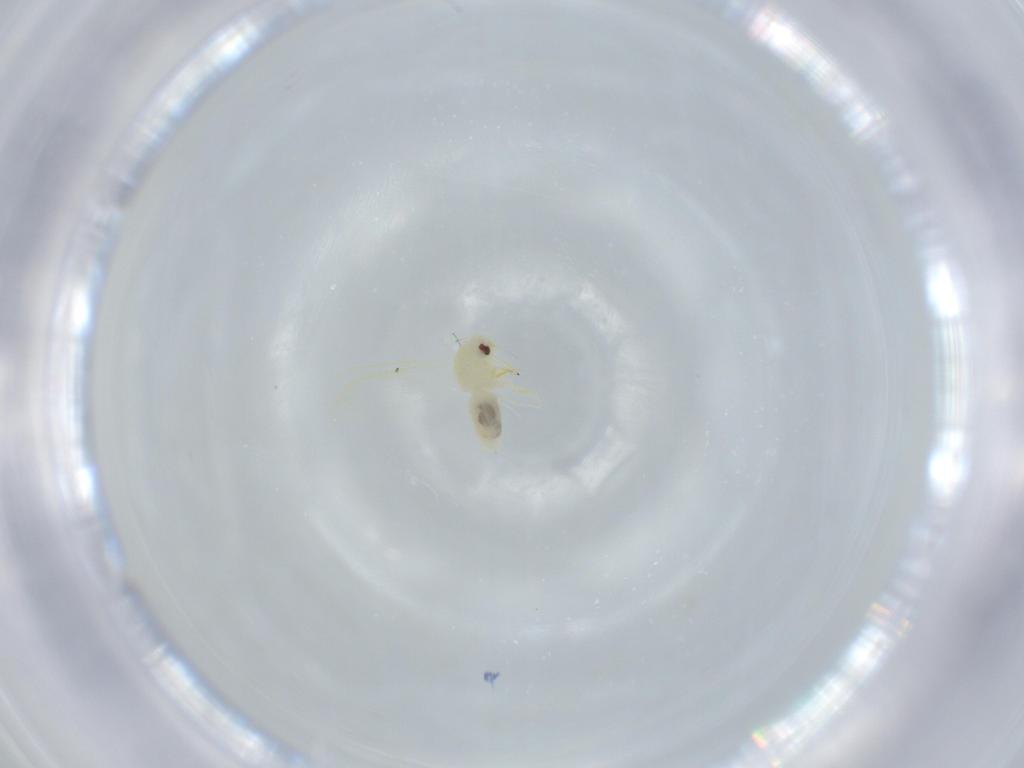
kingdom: Animalia
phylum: Arthropoda
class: Insecta
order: Hemiptera
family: Aleyrodidae
